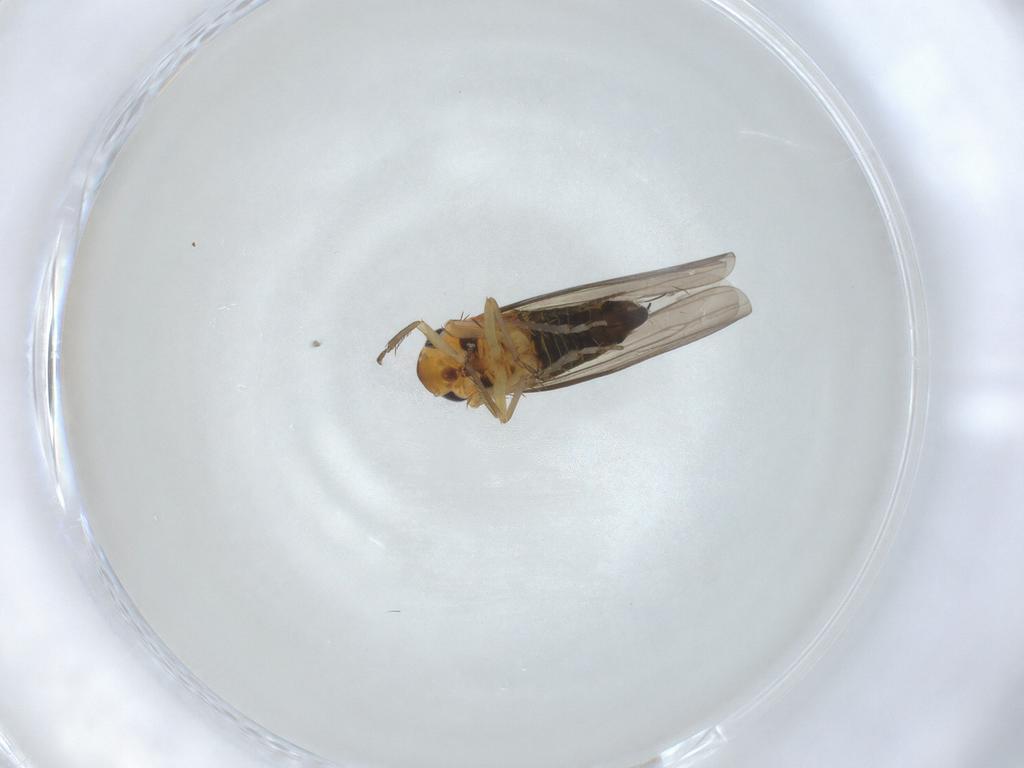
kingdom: Animalia
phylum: Arthropoda
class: Insecta
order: Hemiptera
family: Cicadellidae
